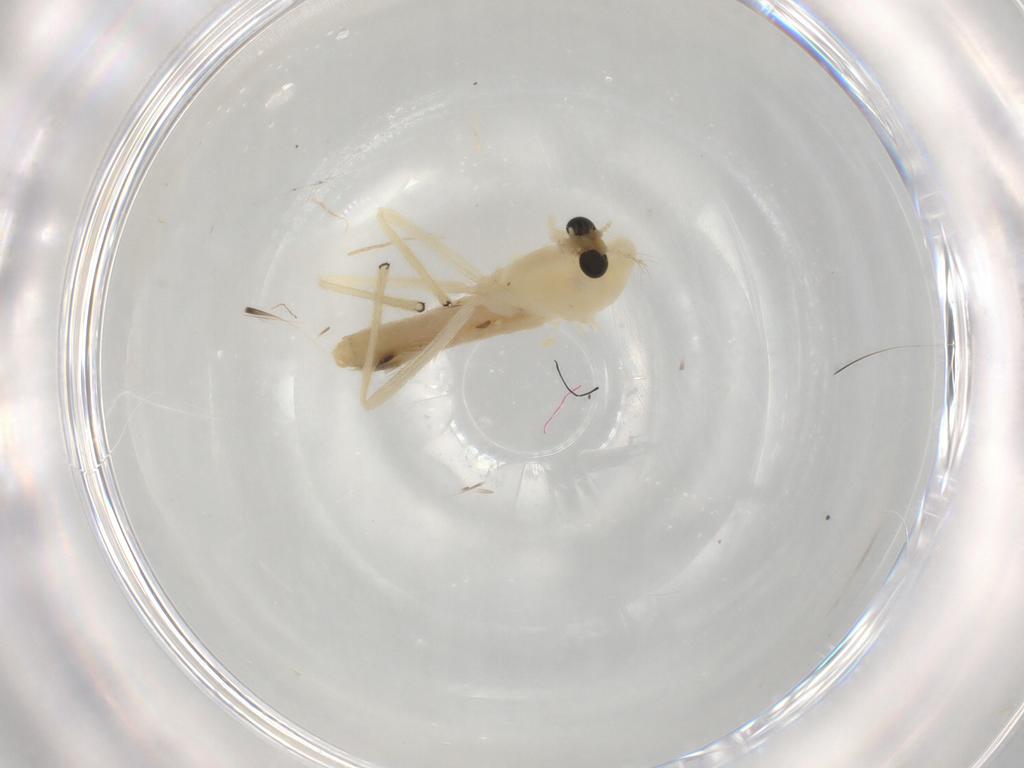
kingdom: Animalia
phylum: Arthropoda
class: Insecta
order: Diptera
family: Chironomidae
